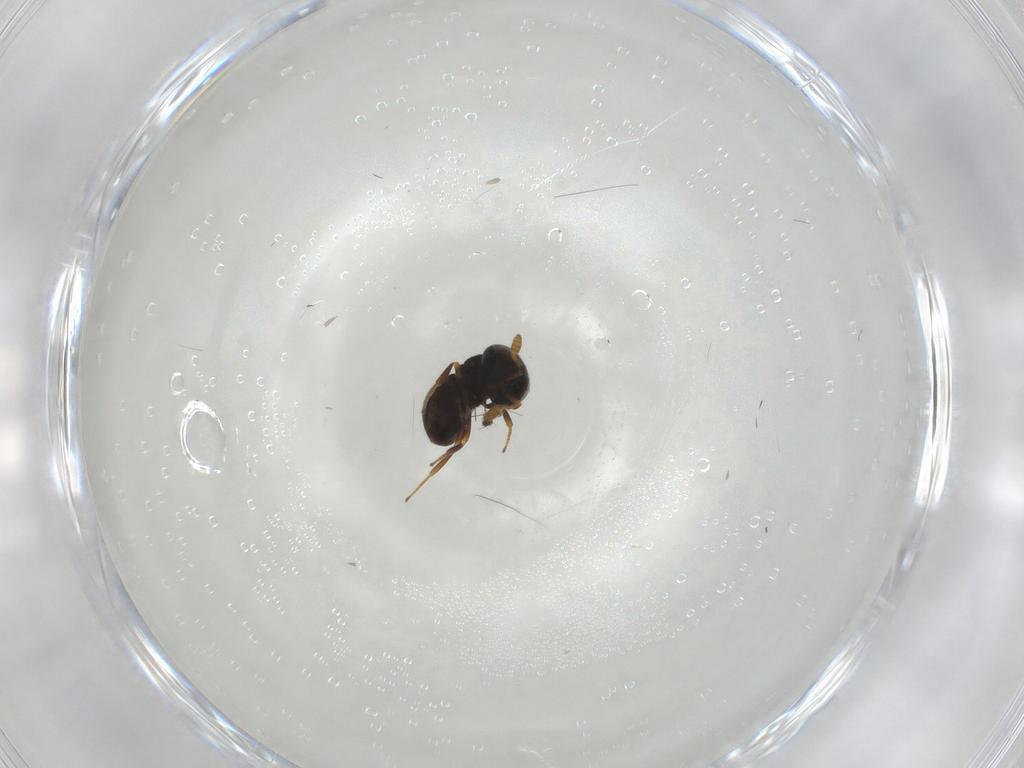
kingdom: Animalia
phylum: Arthropoda
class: Insecta
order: Hymenoptera
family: Scelionidae
